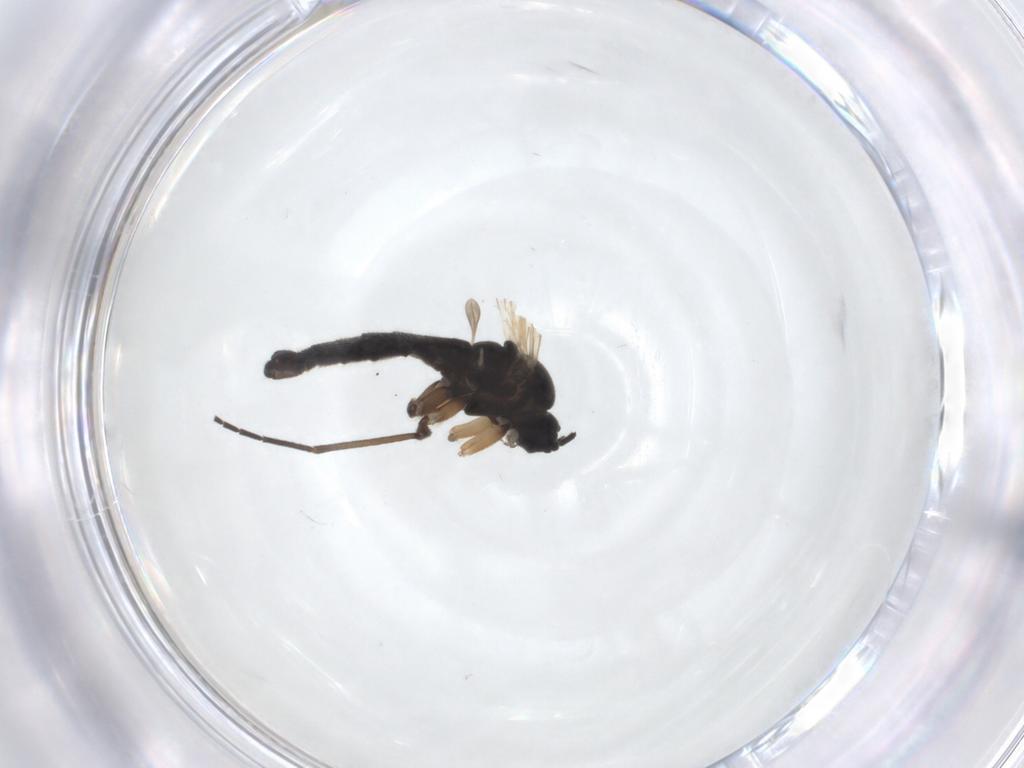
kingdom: Animalia
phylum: Arthropoda
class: Insecta
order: Diptera
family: Sciaridae
